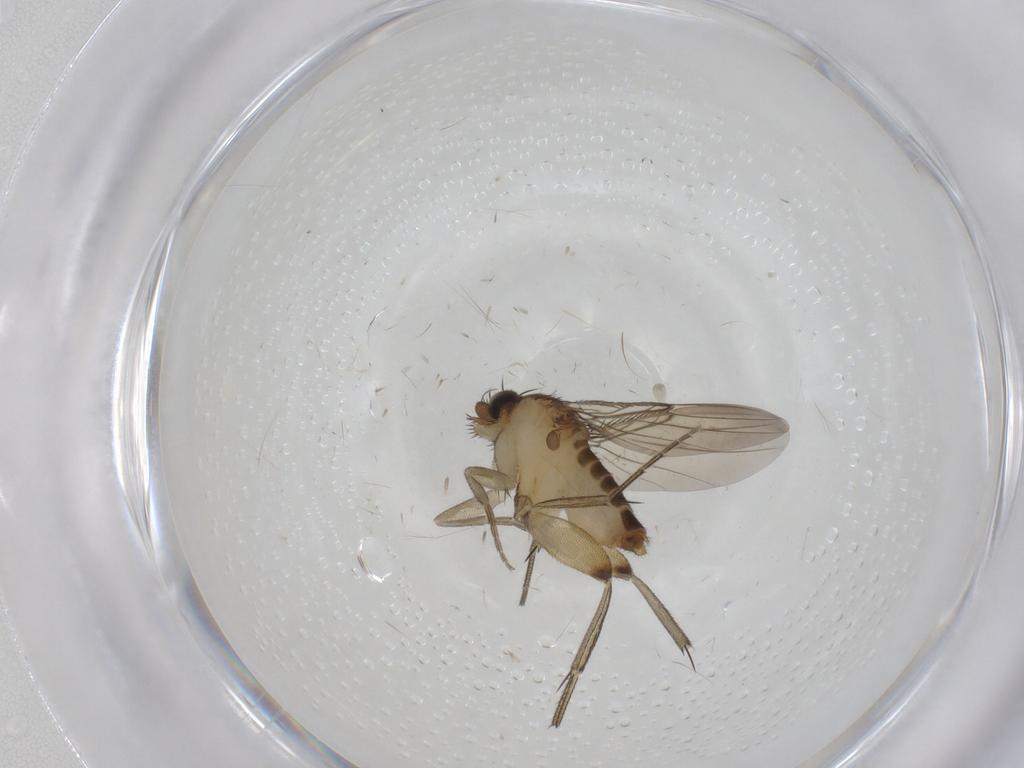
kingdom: Animalia
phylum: Arthropoda
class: Insecta
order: Diptera
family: Phoridae
